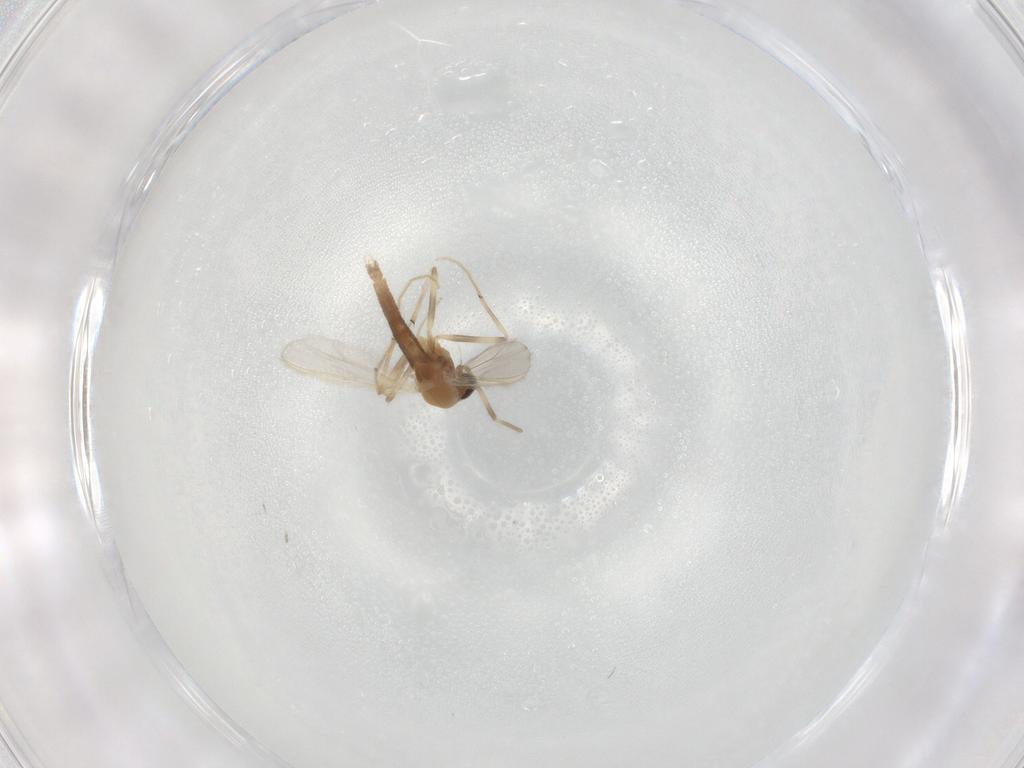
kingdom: Animalia
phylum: Arthropoda
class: Insecta
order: Diptera
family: Chironomidae
